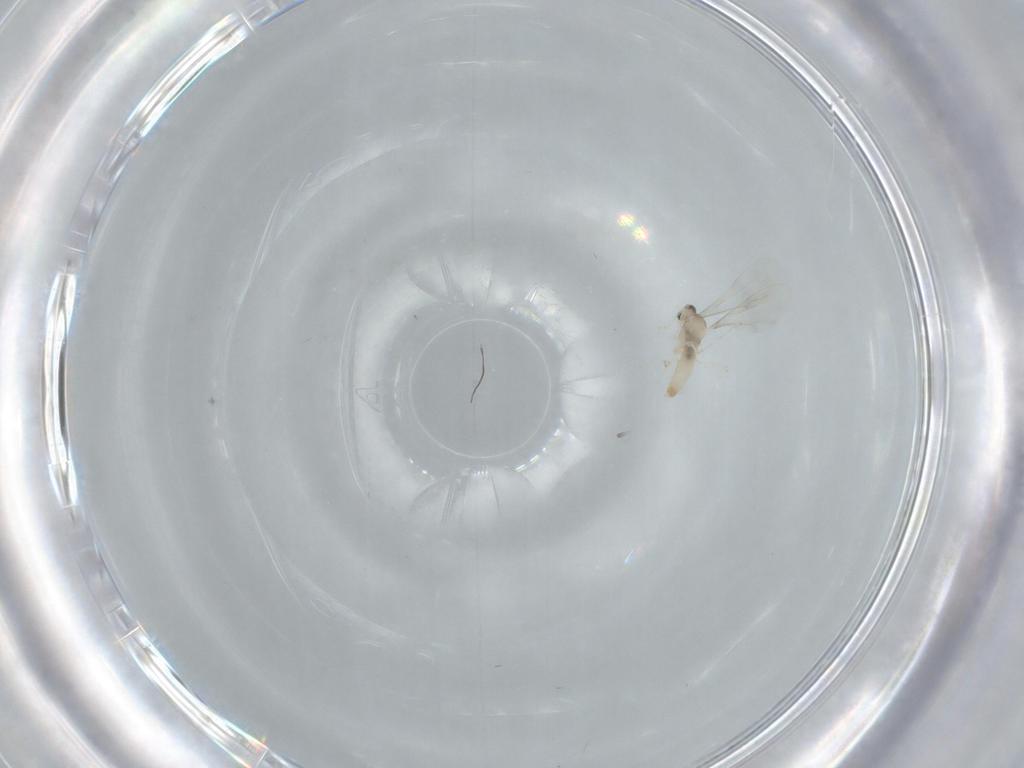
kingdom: Animalia
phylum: Arthropoda
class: Insecta
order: Diptera
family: Cecidomyiidae
